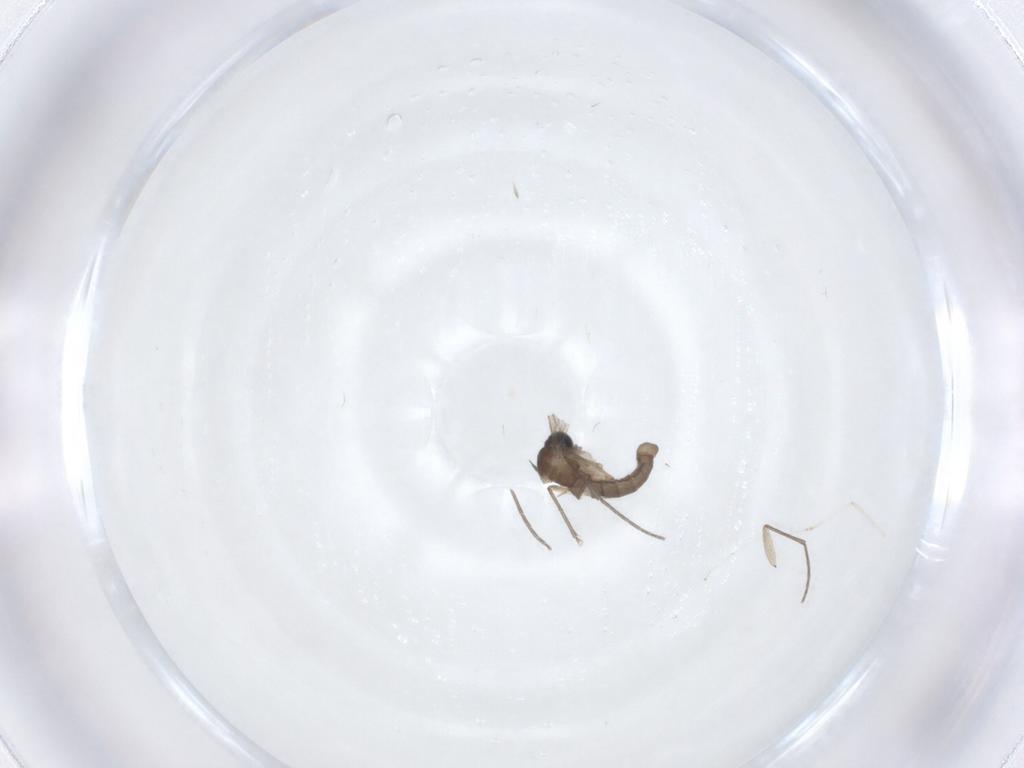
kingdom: Animalia
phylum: Arthropoda
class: Insecta
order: Diptera
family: Sciaridae
